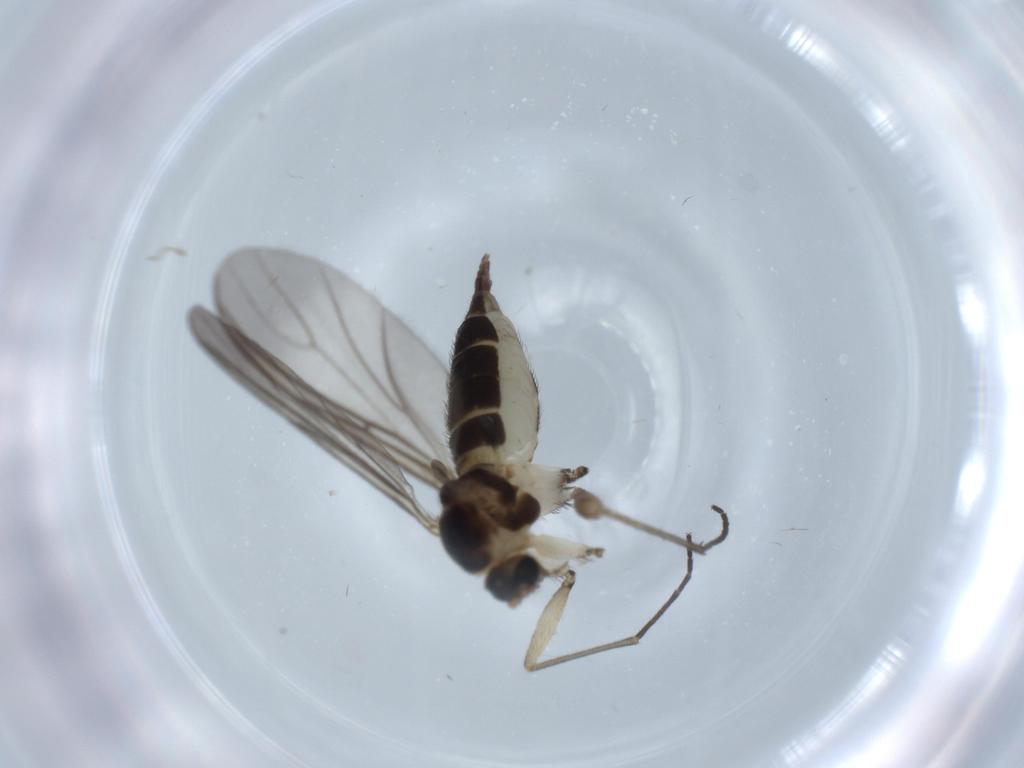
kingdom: Animalia
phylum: Arthropoda
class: Insecta
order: Diptera
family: Sciaridae
